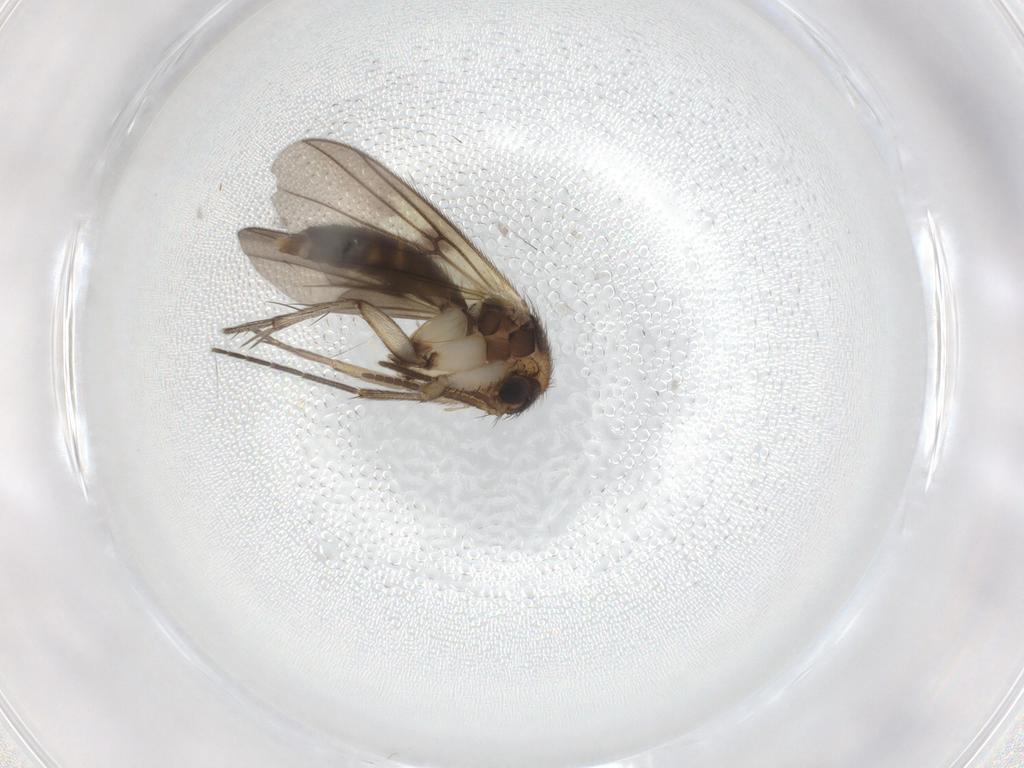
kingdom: Animalia
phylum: Arthropoda
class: Insecta
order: Diptera
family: Mycetophilidae
